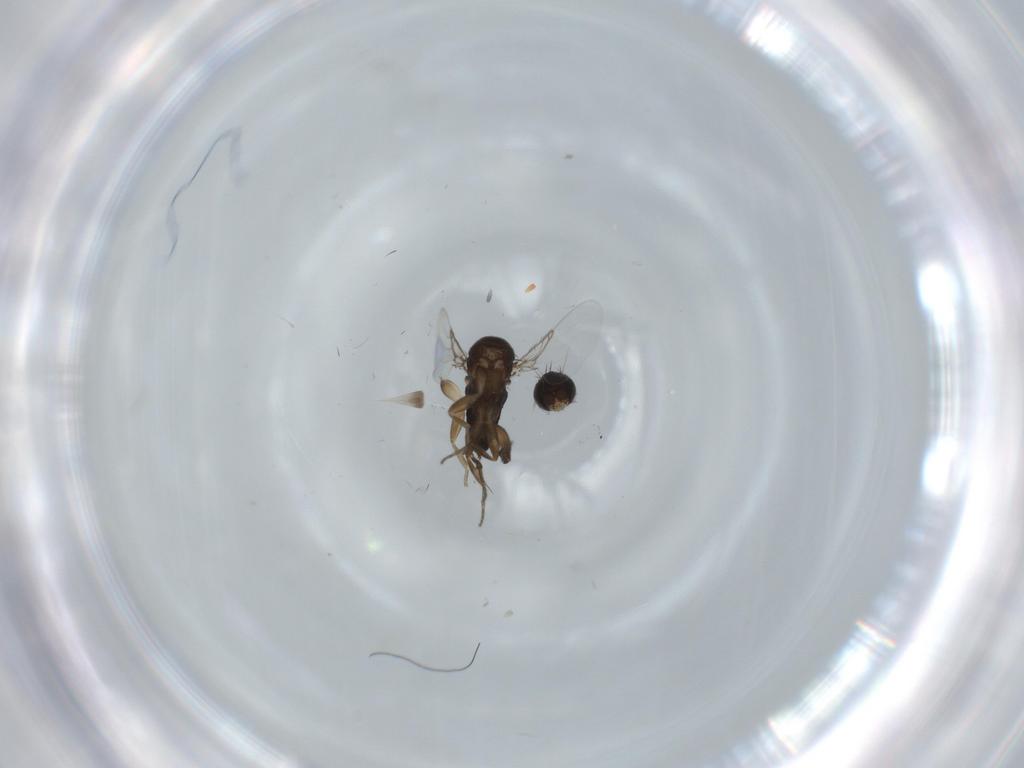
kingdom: Animalia
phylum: Arthropoda
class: Insecta
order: Diptera
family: Phoridae
